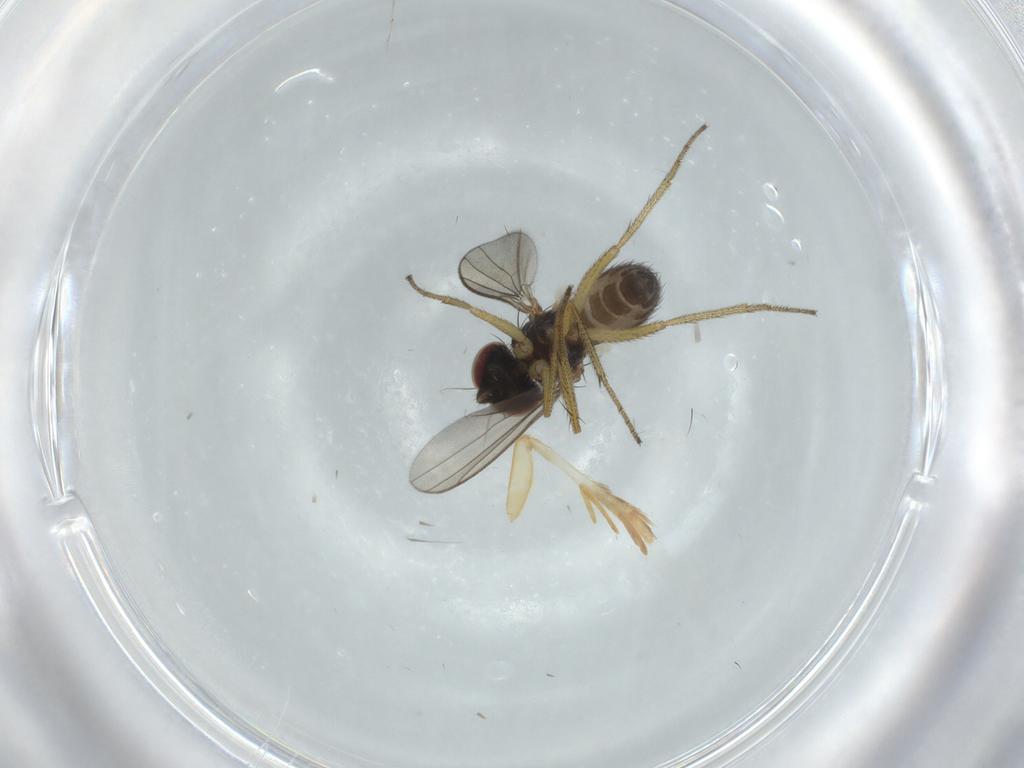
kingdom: Animalia
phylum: Arthropoda
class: Insecta
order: Diptera
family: Dolichopodidae
